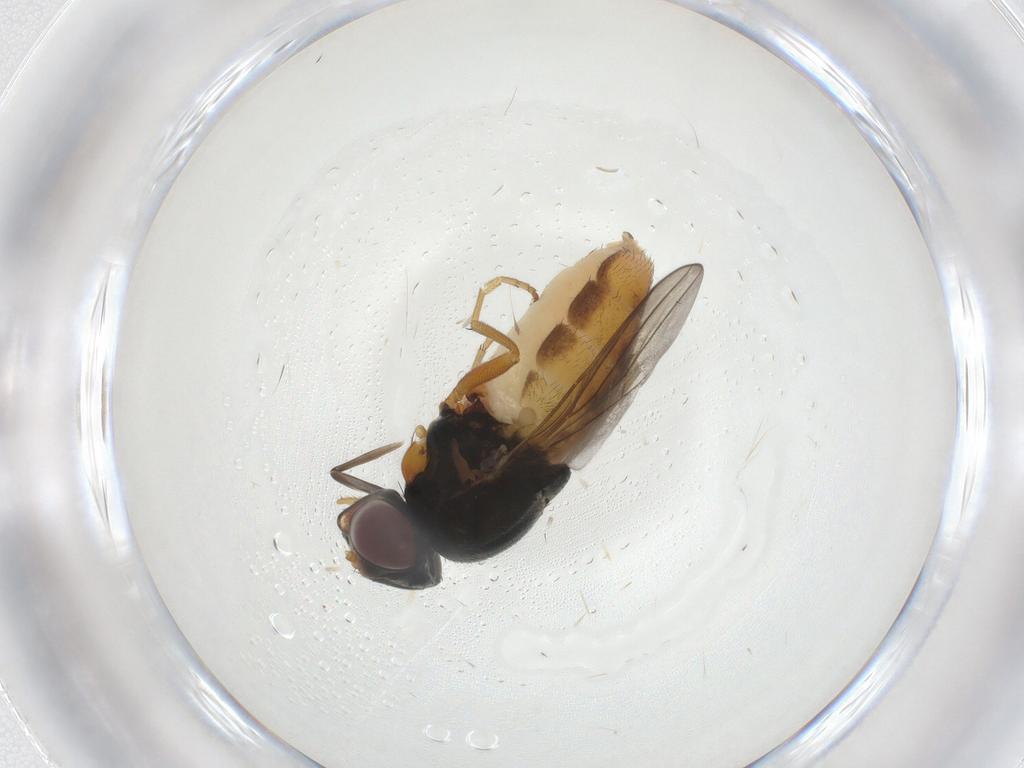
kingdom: Animalia
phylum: Arthropoda
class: Insecta
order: Diptera
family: Chloropidae
